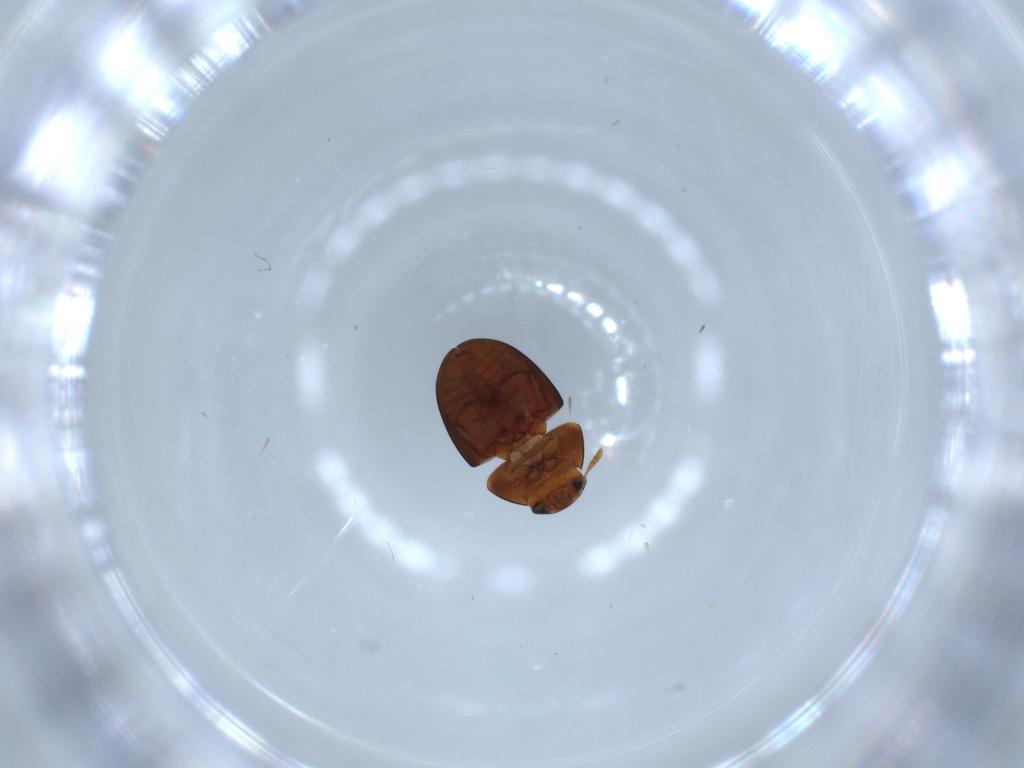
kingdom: Animalia
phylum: Arthropoda
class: Insecta
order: Coleoptera
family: Phalacridae
